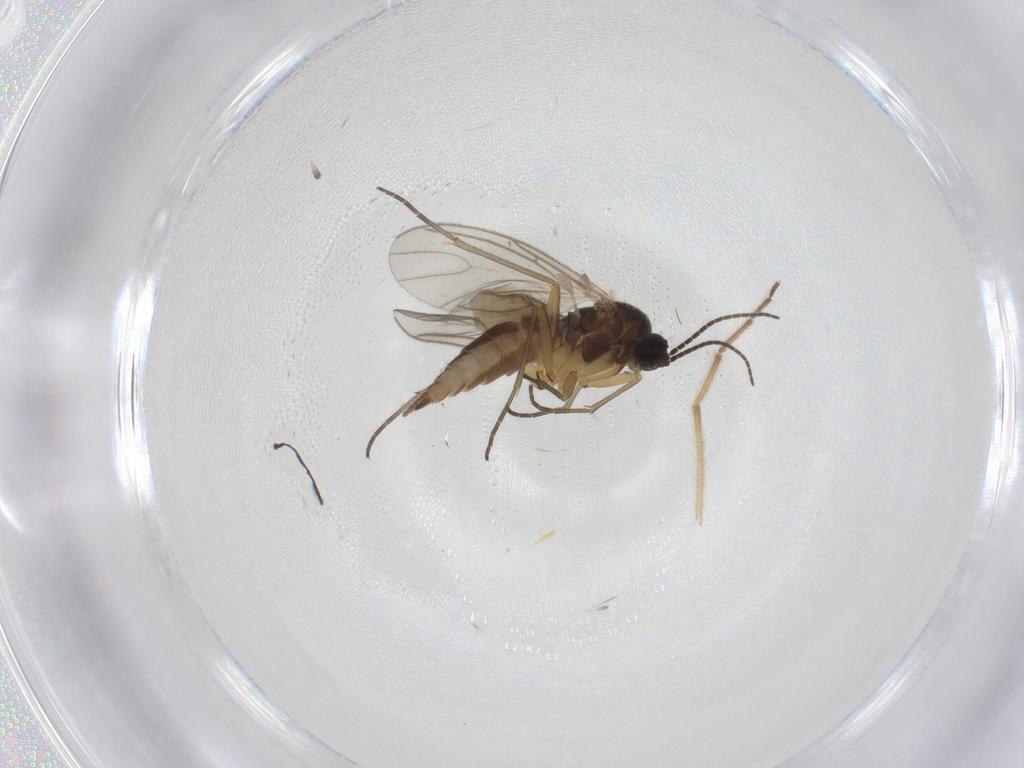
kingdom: Animalia
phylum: Arthropoda
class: Insecta
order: Diptera
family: Sciaridae
